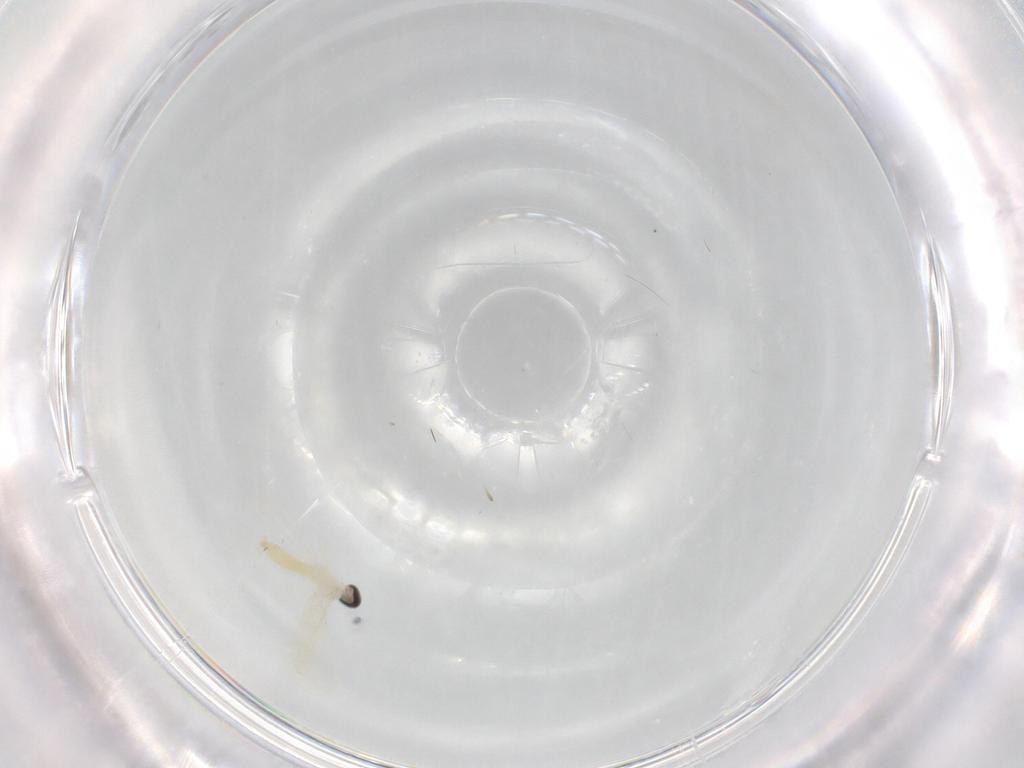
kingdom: Animalia
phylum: Arthropoda
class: Insecta
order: Diptera
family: Cecidomyiidae
